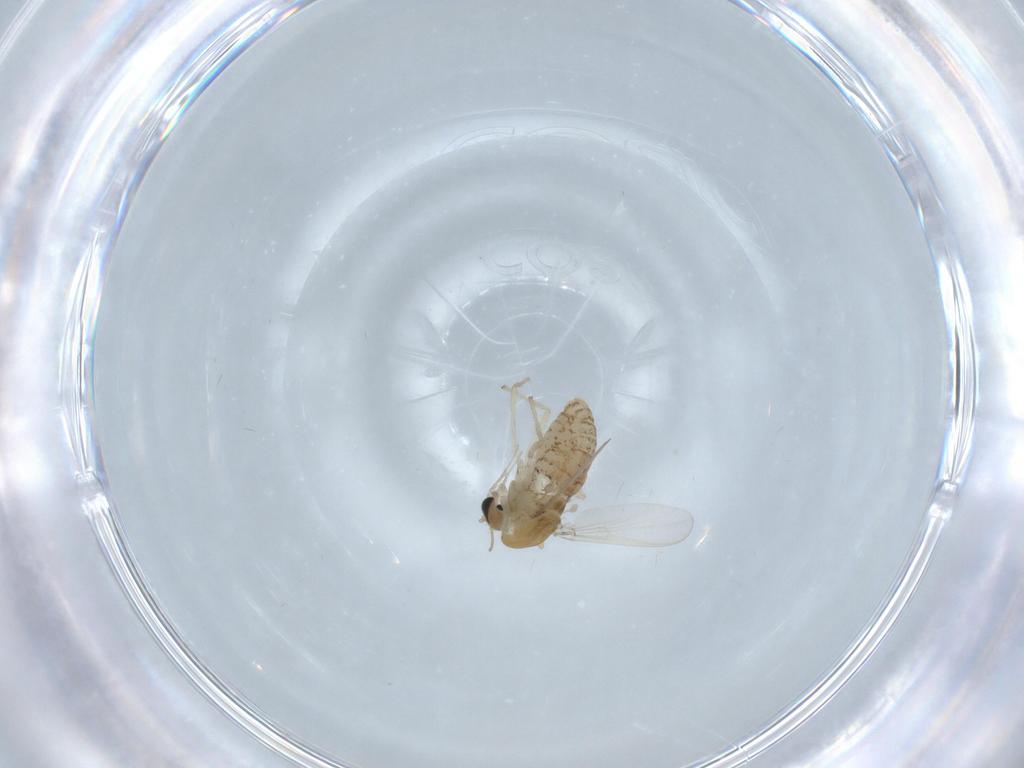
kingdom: Animalia
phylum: Arthropoda
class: Insecta
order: Diptera
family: Chironomidae
